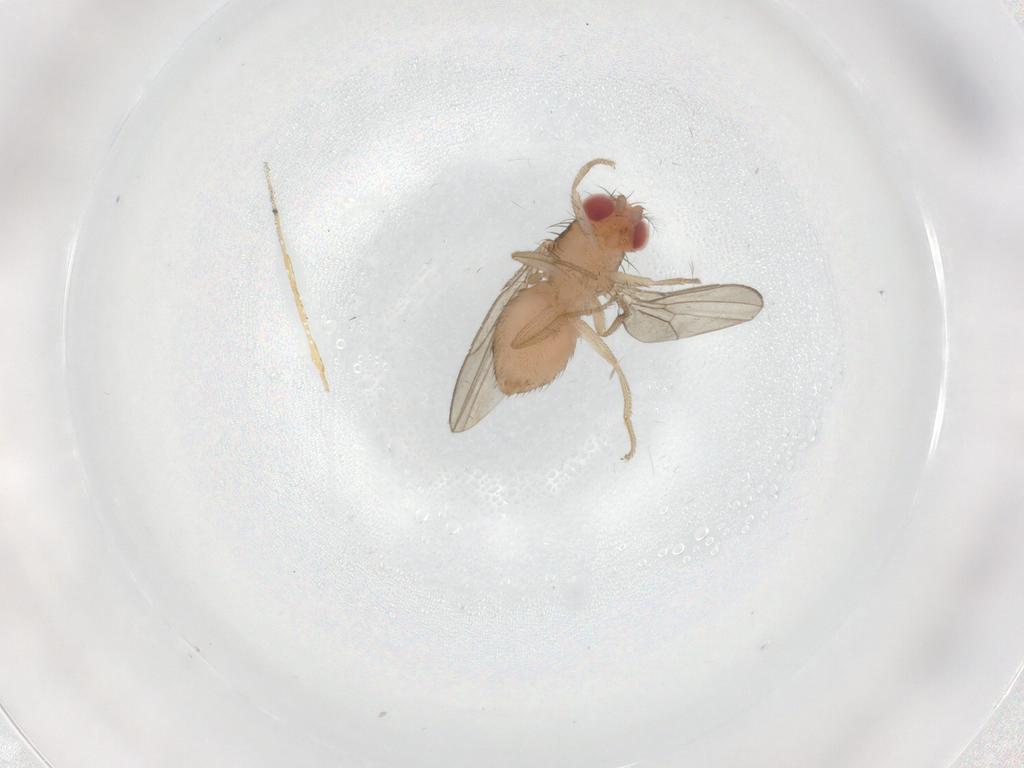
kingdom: Animalia
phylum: Arthropoda
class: Insecta
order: Diptera
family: Drosophilidae
